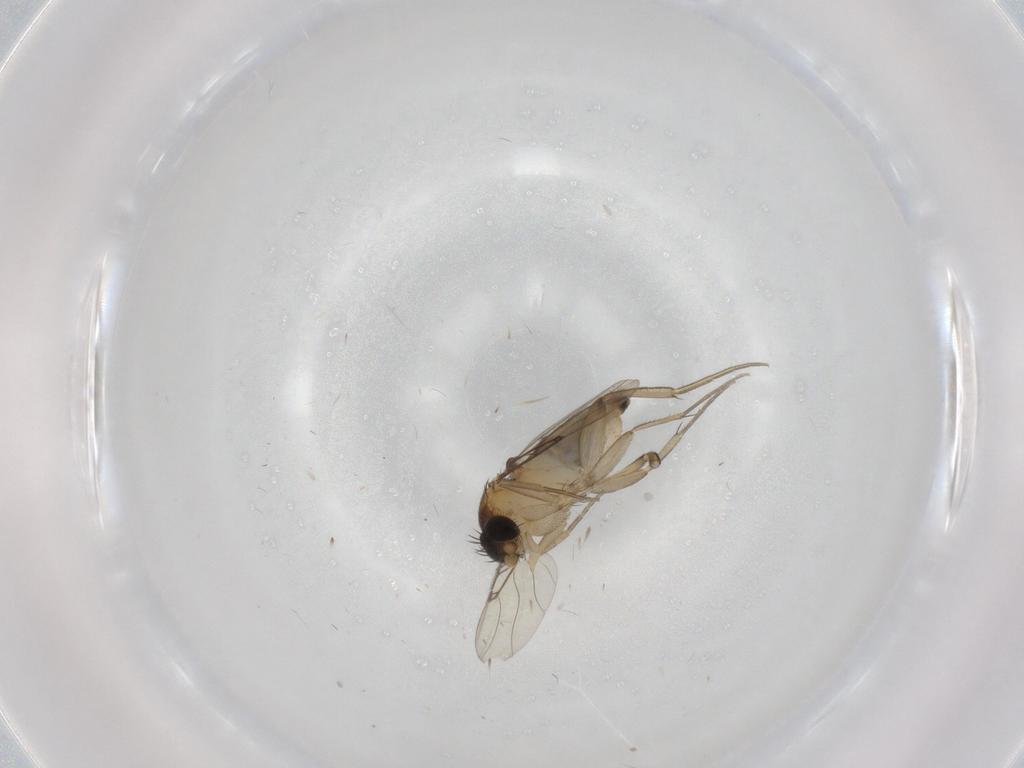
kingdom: Animalia
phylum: Arthropoda
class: Insecta
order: Diptera
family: Phoridae
